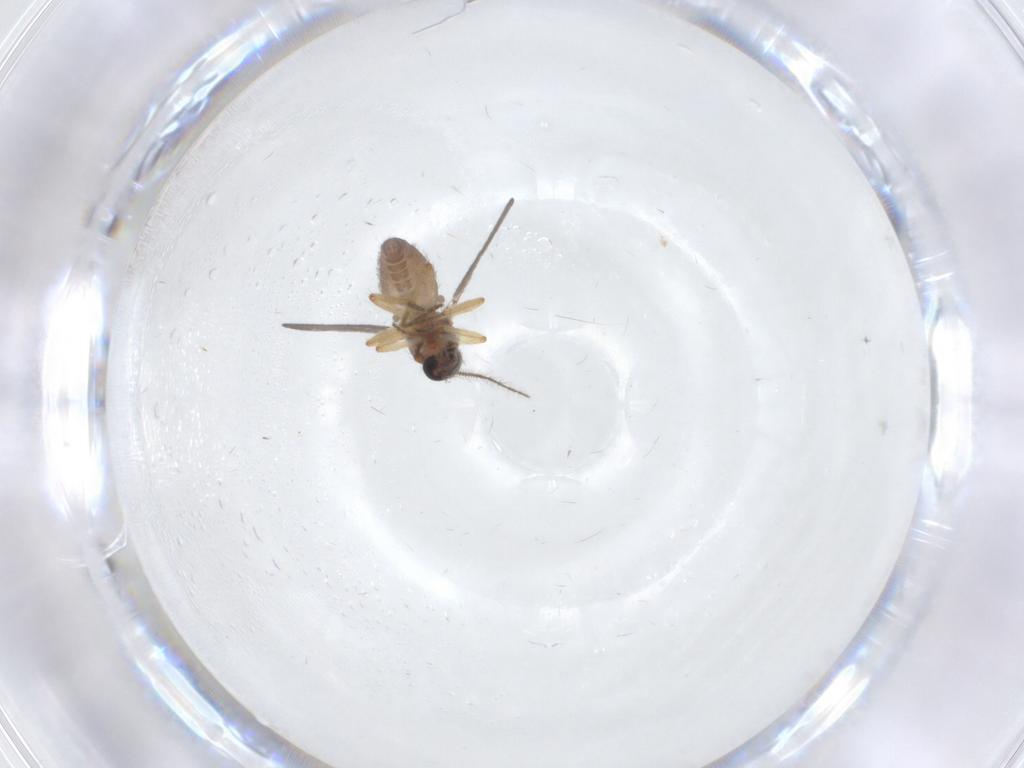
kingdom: Animalia
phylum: Arthropoda
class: Insecta
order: Diptera
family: Ceratopogonidae
